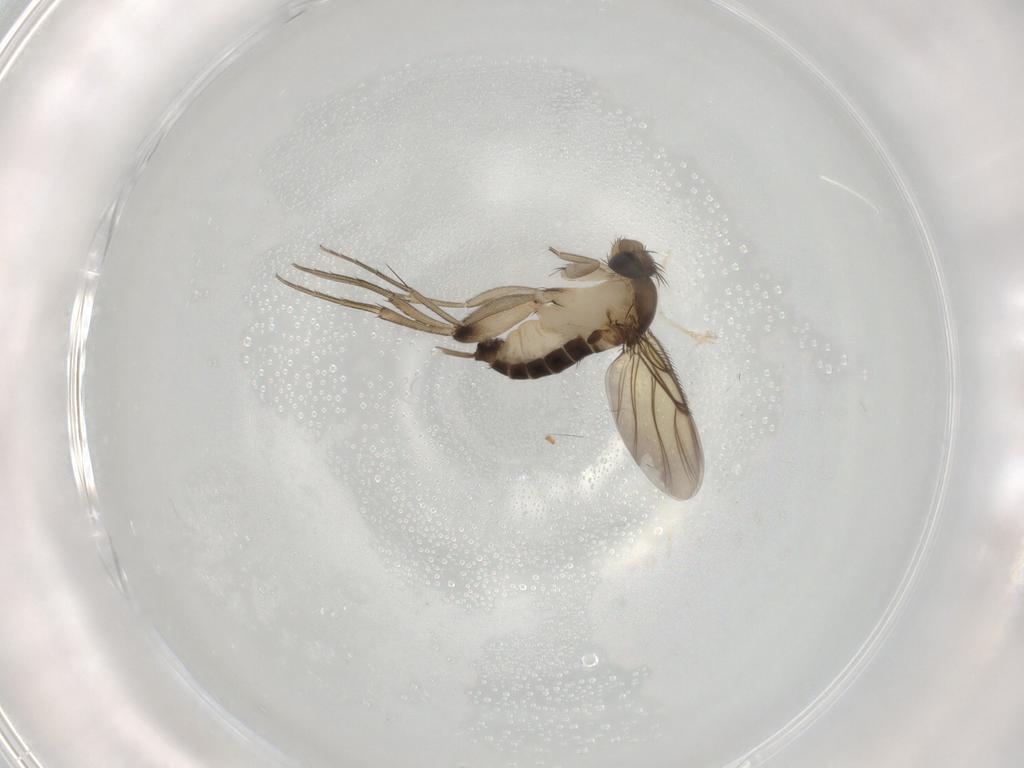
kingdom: Animalia
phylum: Arthropoda
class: Insecta
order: Diptera
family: Phoridae
